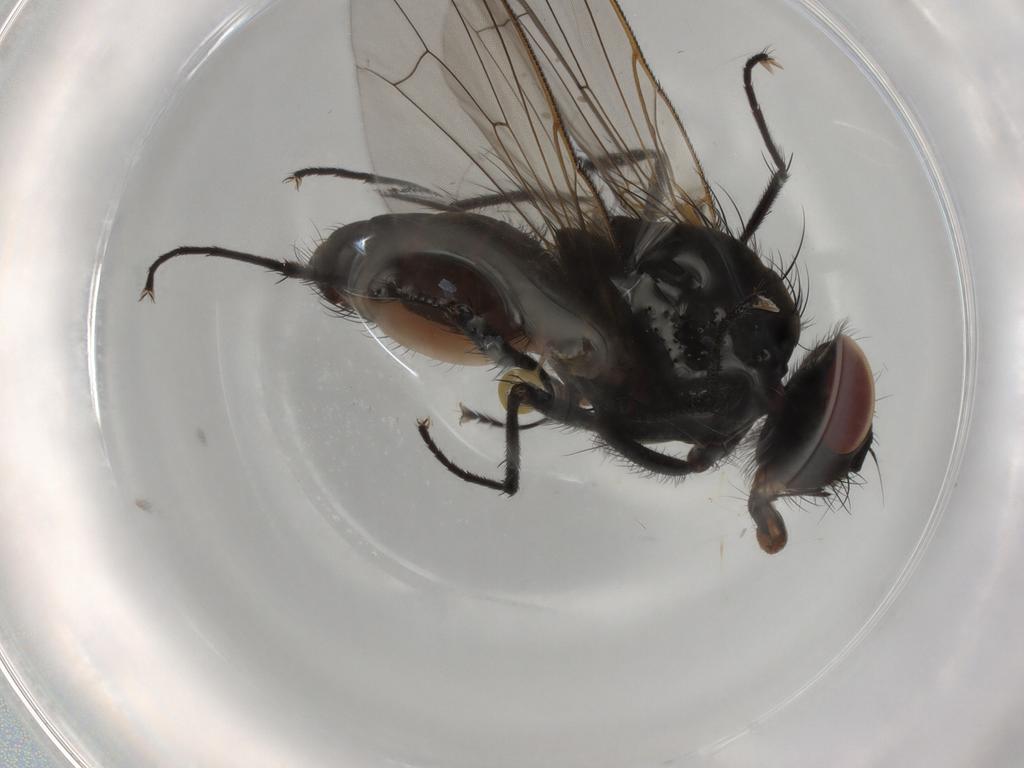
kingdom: Animalia
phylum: Arthropoda
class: Insecta
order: Diptera
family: Anthomyiidae
